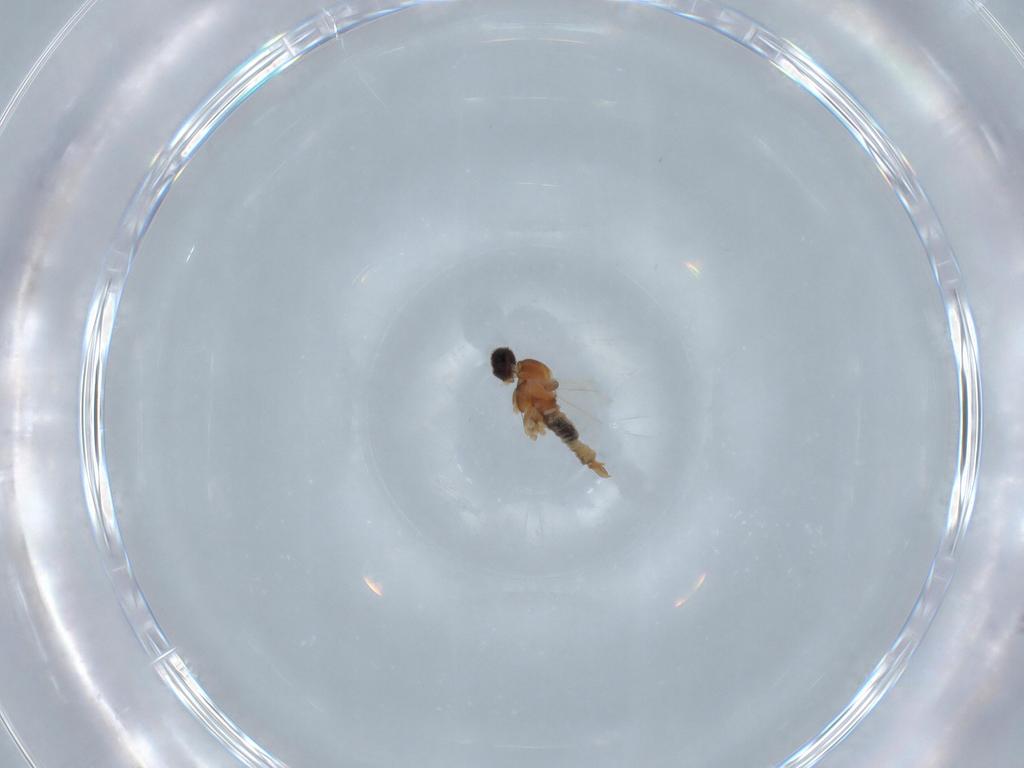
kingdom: Animalia
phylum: Arthropoda
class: Insecta
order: Diptera
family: Cecidomyiidae
